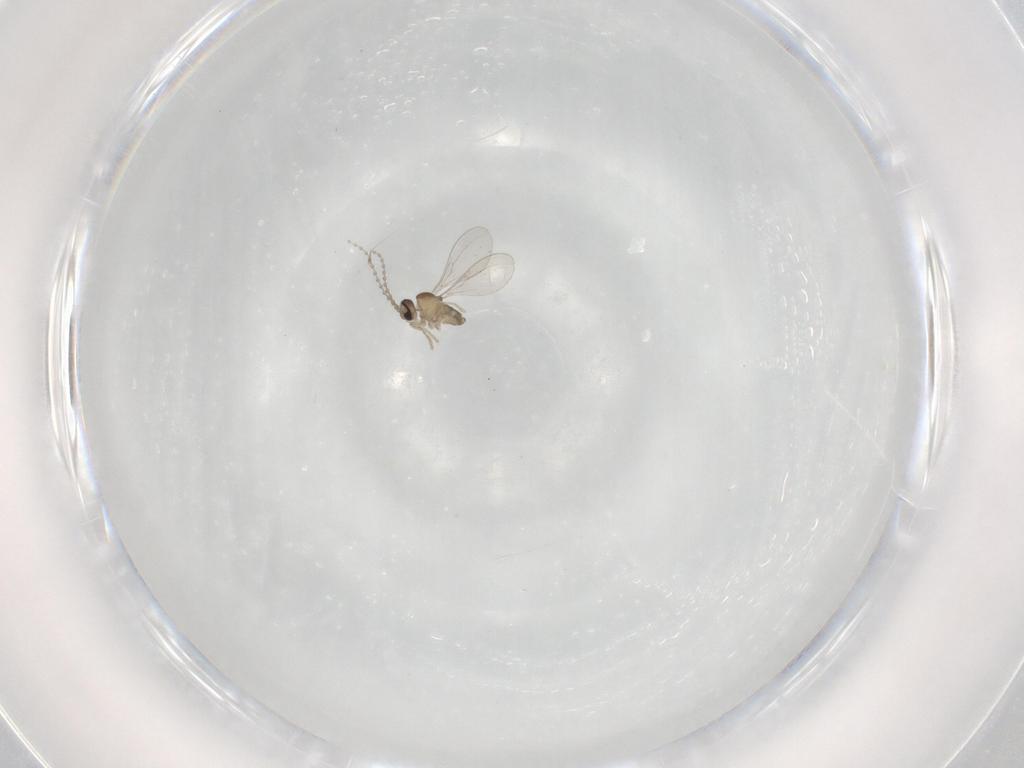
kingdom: Animalia
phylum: Arthropoda
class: Insecta
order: Diptera
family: Cecidomyiidae
